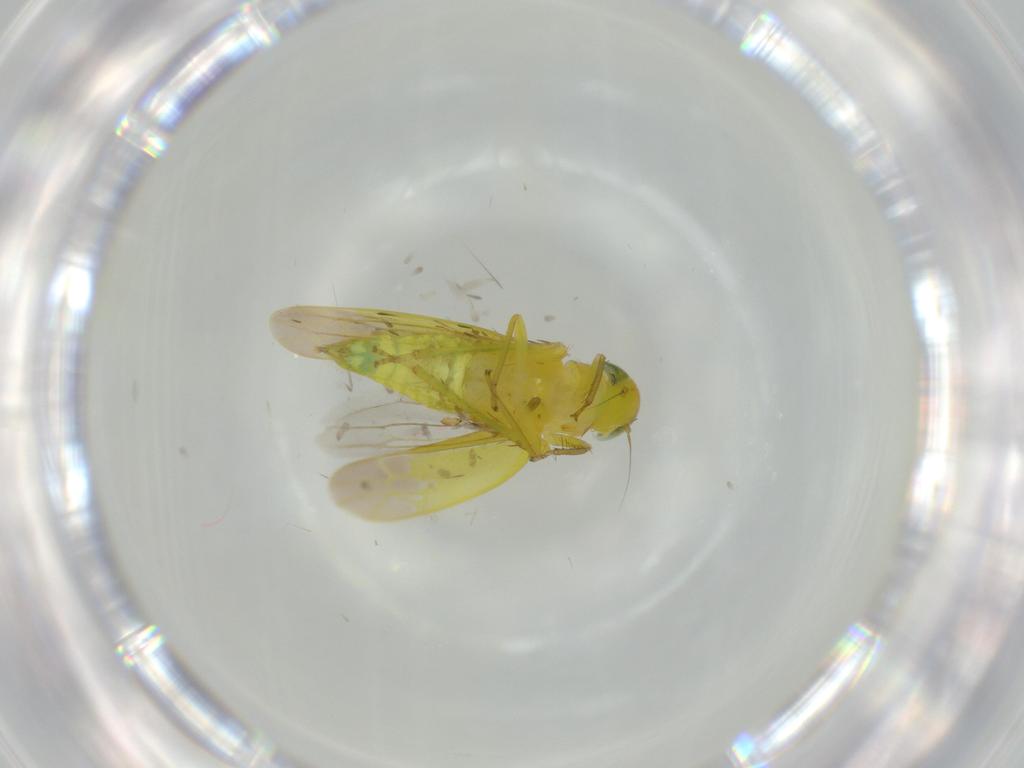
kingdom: Animalia
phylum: Arthropoda
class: Insecta
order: Hemiptera
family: Cicadellidae
